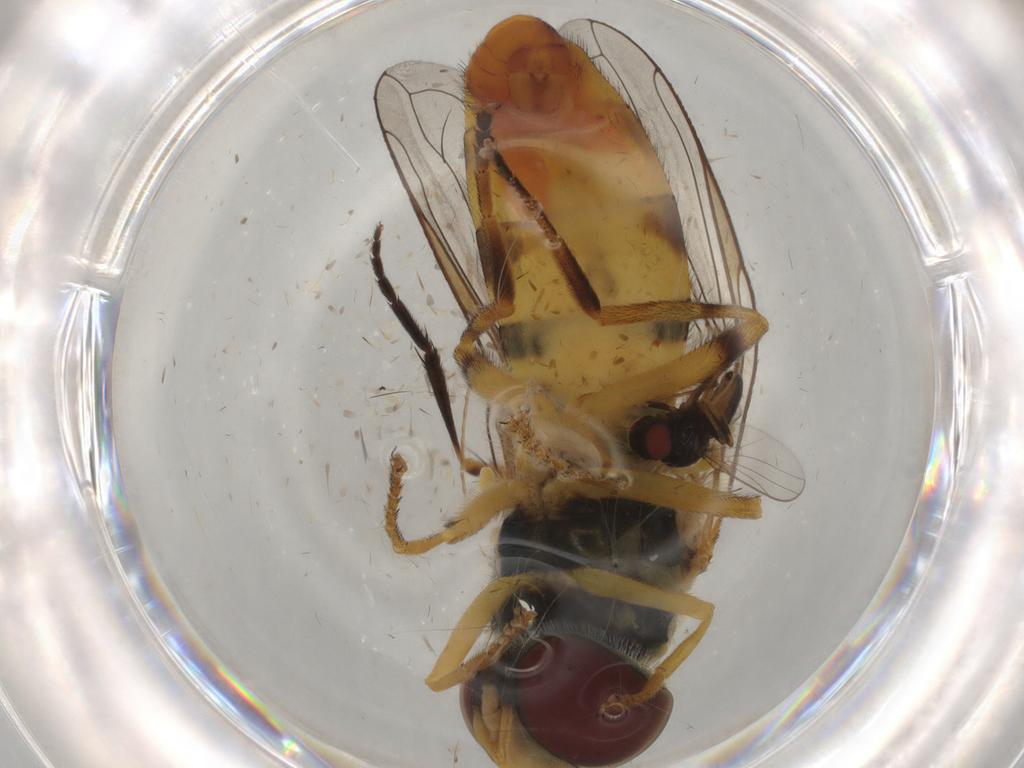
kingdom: Animalia
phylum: Arthropoda
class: Insecta
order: Diptera
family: Chloropidae
